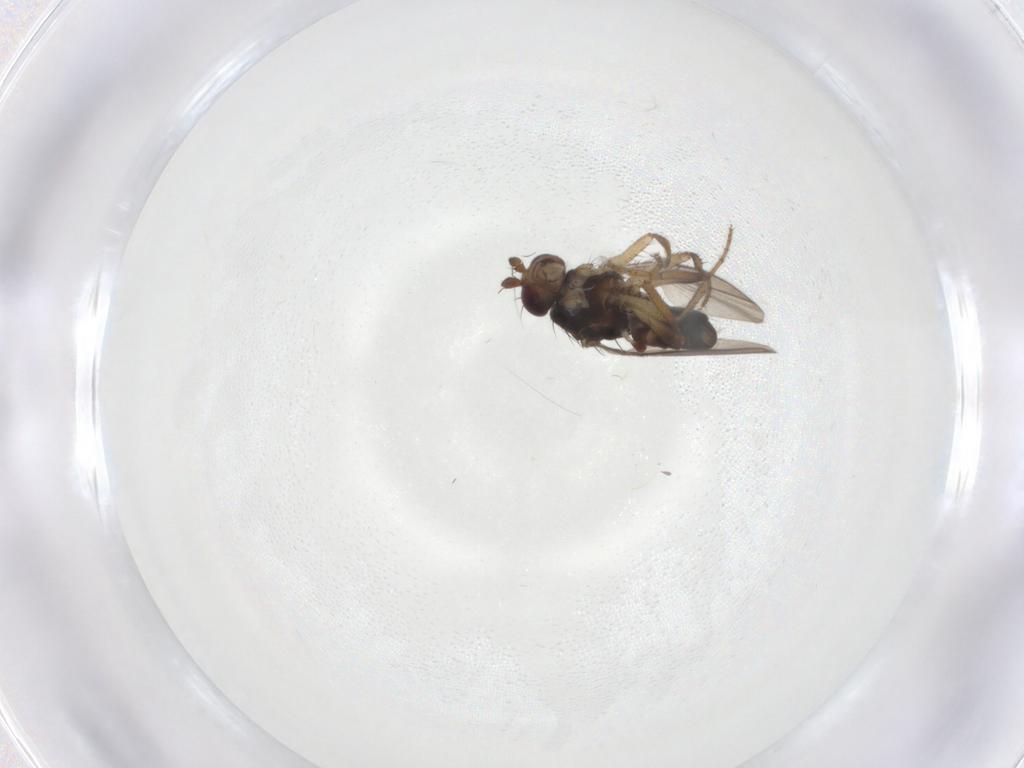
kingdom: Animalia
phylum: Arthropoda
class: Insecta
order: Diptera
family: Sphaeroceridae
